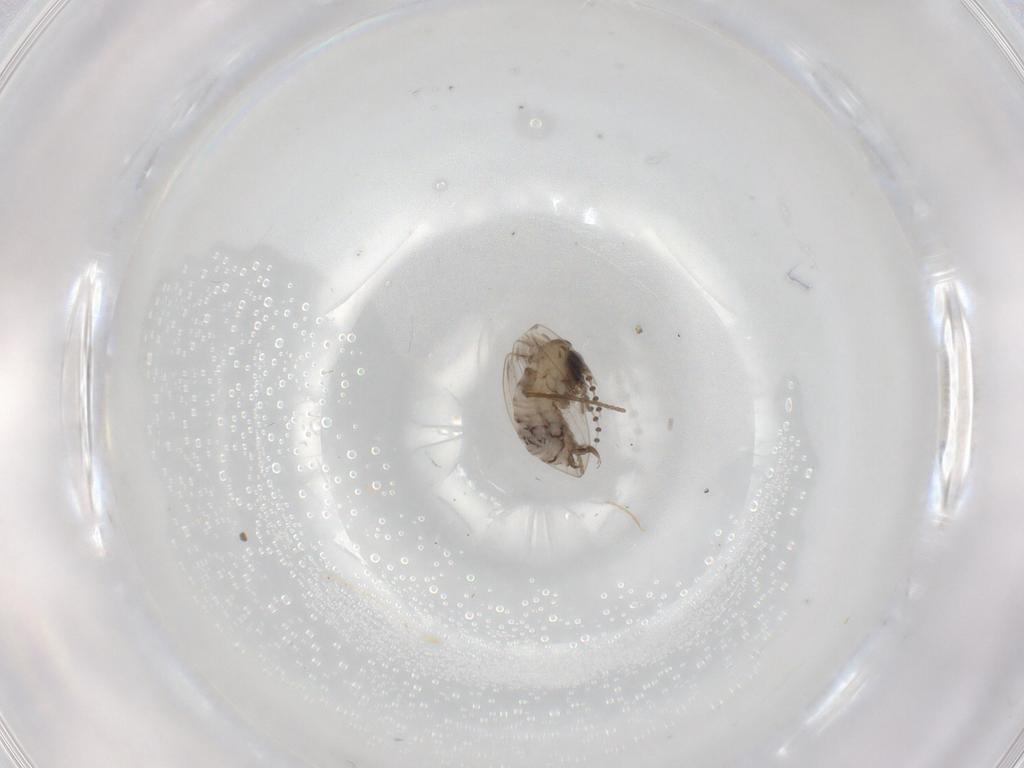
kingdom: Animalia
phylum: Arthropoda
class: Insecta
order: Diptera
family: Psychodidae
